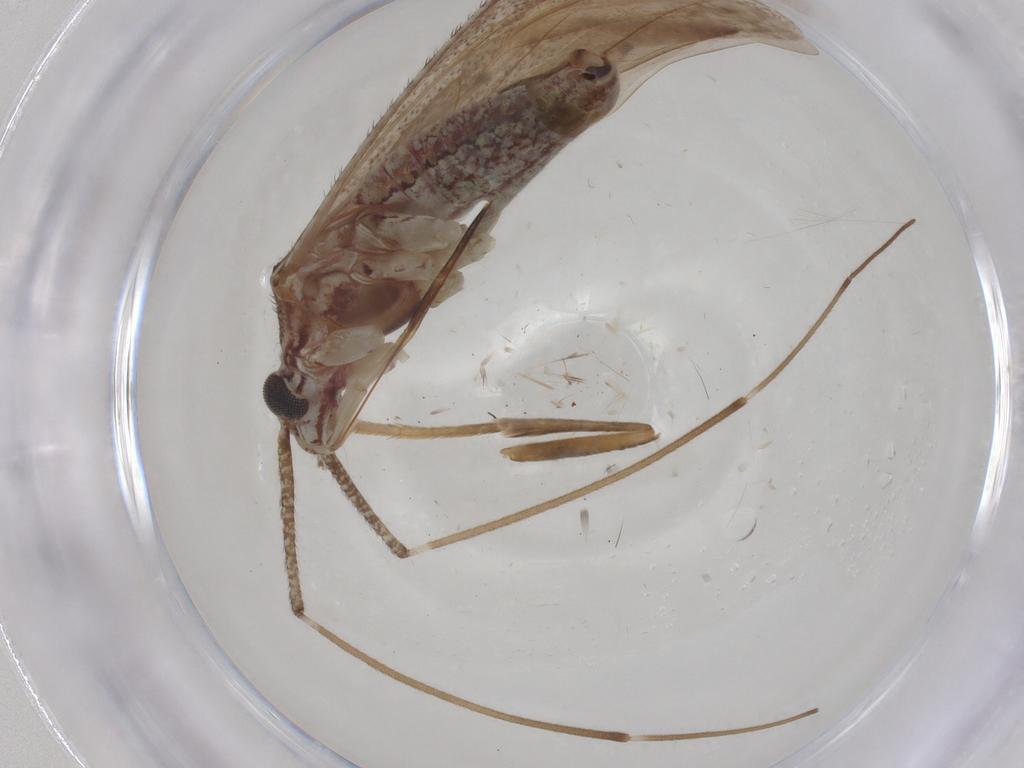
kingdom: Animalia
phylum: Arthropoda
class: Insecta
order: Hemiptera
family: Miridae
